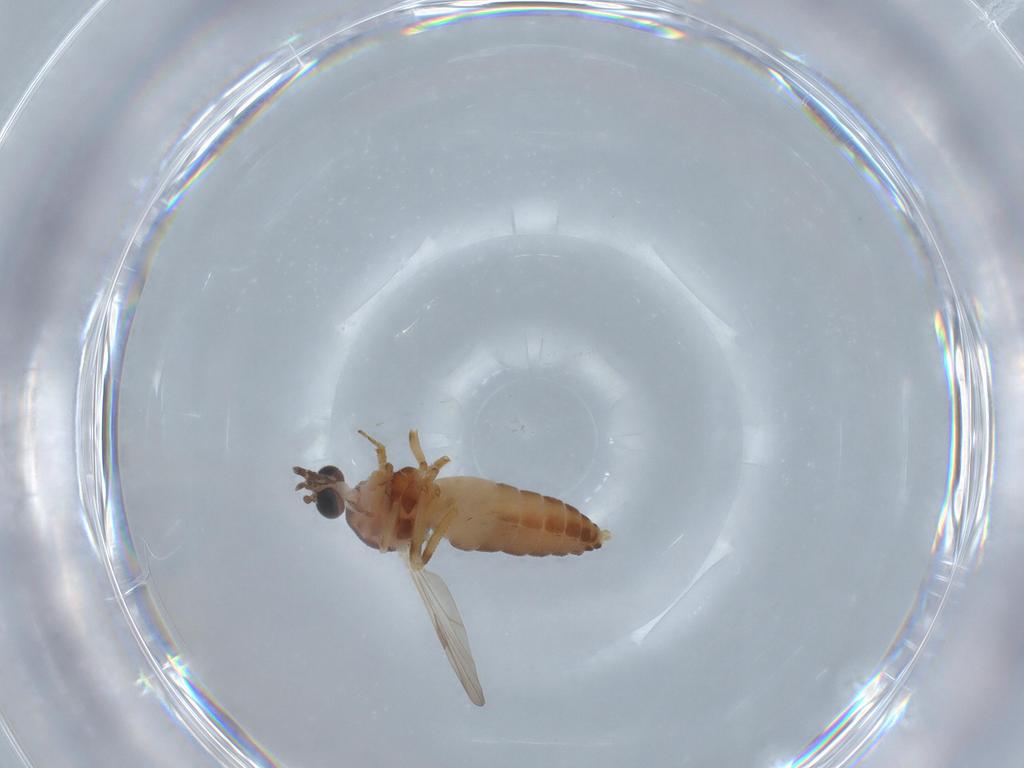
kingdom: Animalia
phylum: Arthropoda
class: Insecta
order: Diptera
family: Ceratopogonidae
